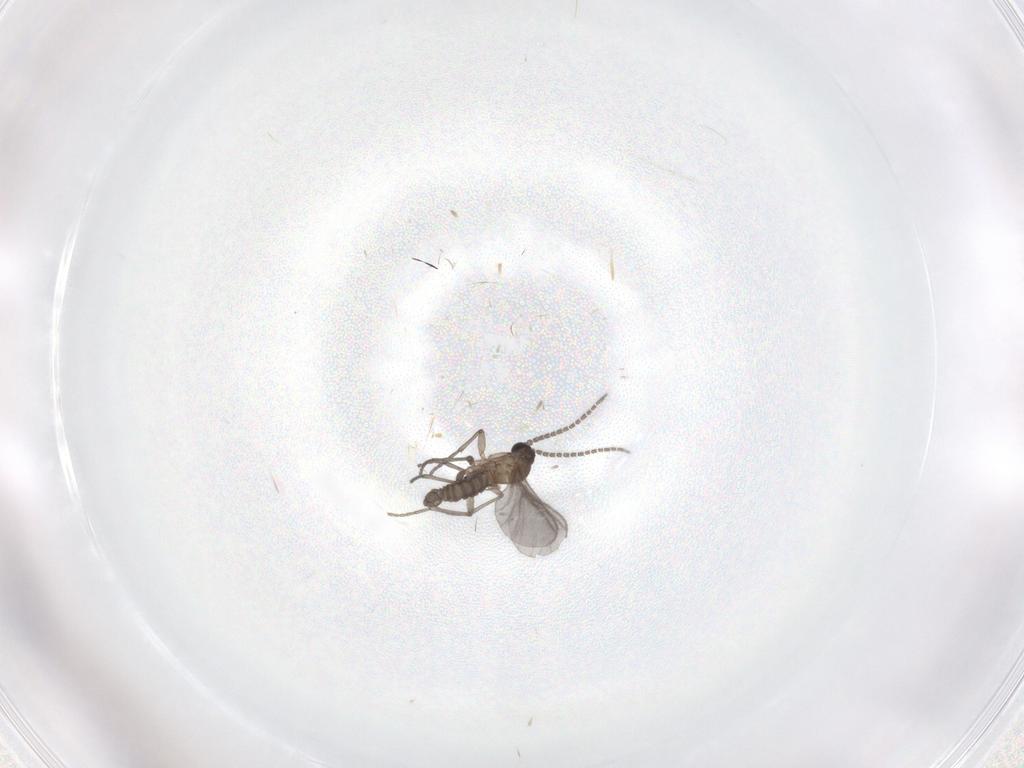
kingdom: Animalia
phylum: Arthropoda
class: Insecta
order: Diptera
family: Sciaridae
